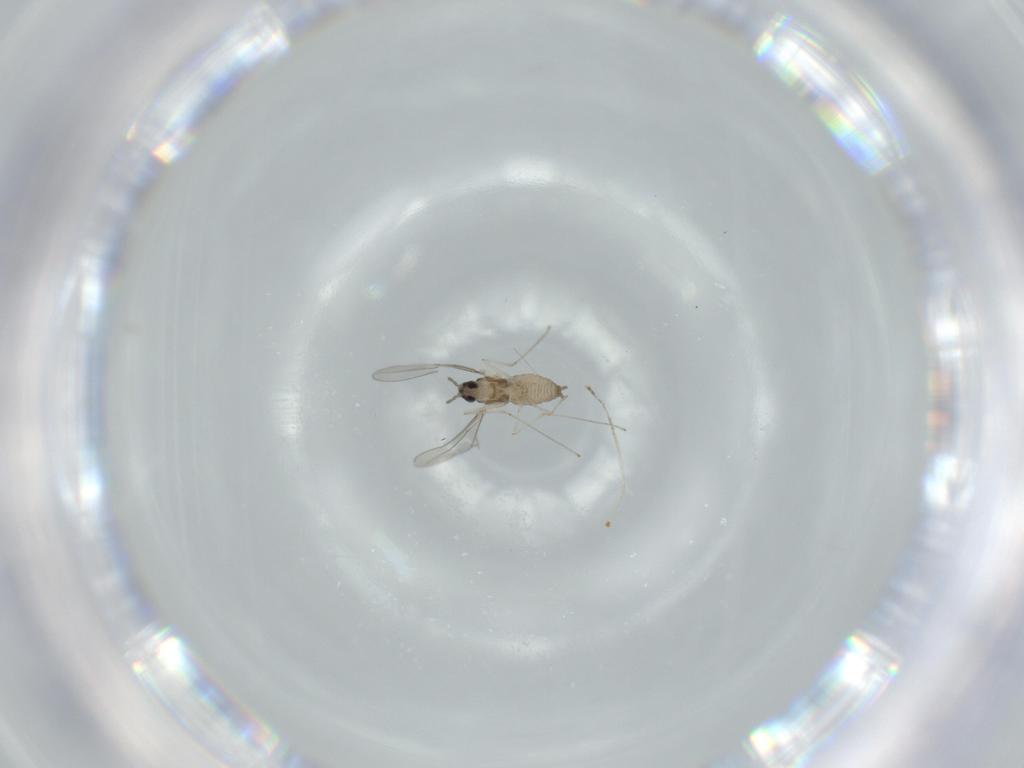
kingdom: Animalia
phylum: Arthropoda
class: Insecta
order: Diptera
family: Cecidomyiidae
